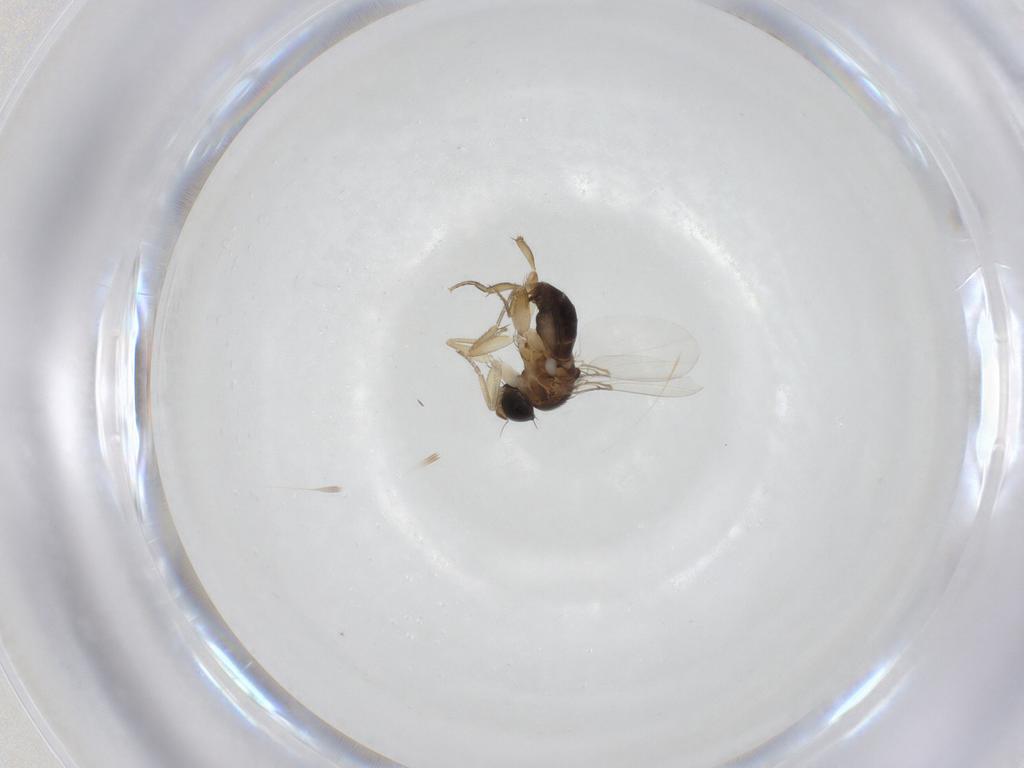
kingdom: Animalia
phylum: Arthropoda
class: Insecta
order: Diptera
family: Phoridae
